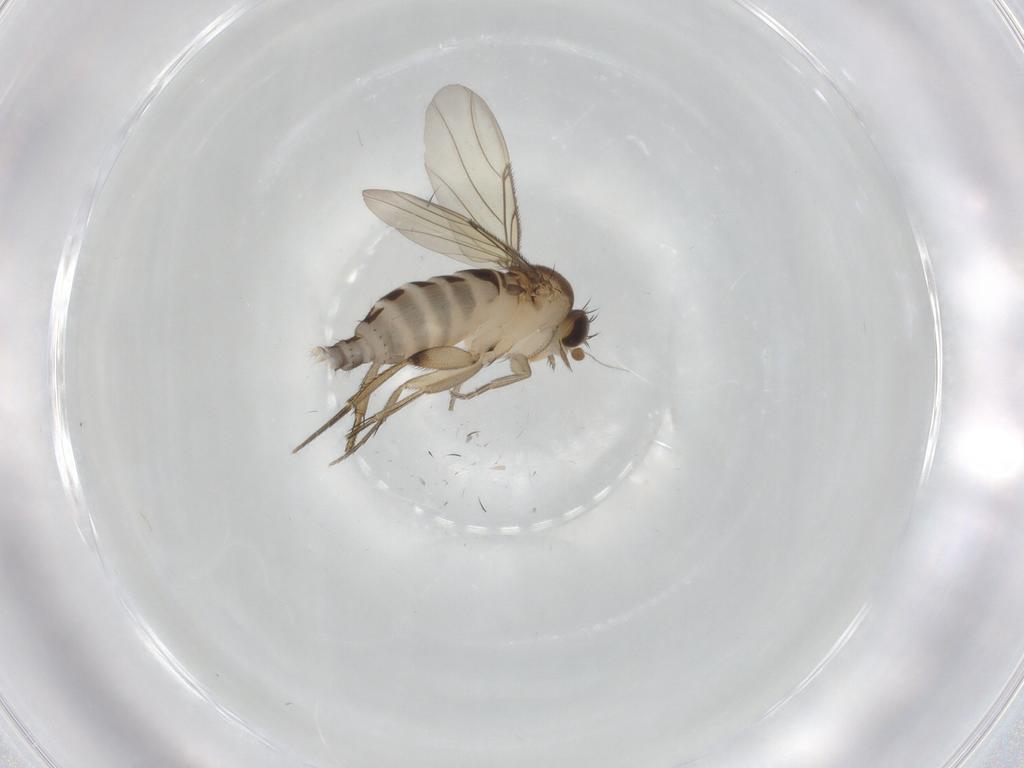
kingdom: Animalia
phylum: Arthropoda
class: Insecta
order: Diptera
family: Phoridae
